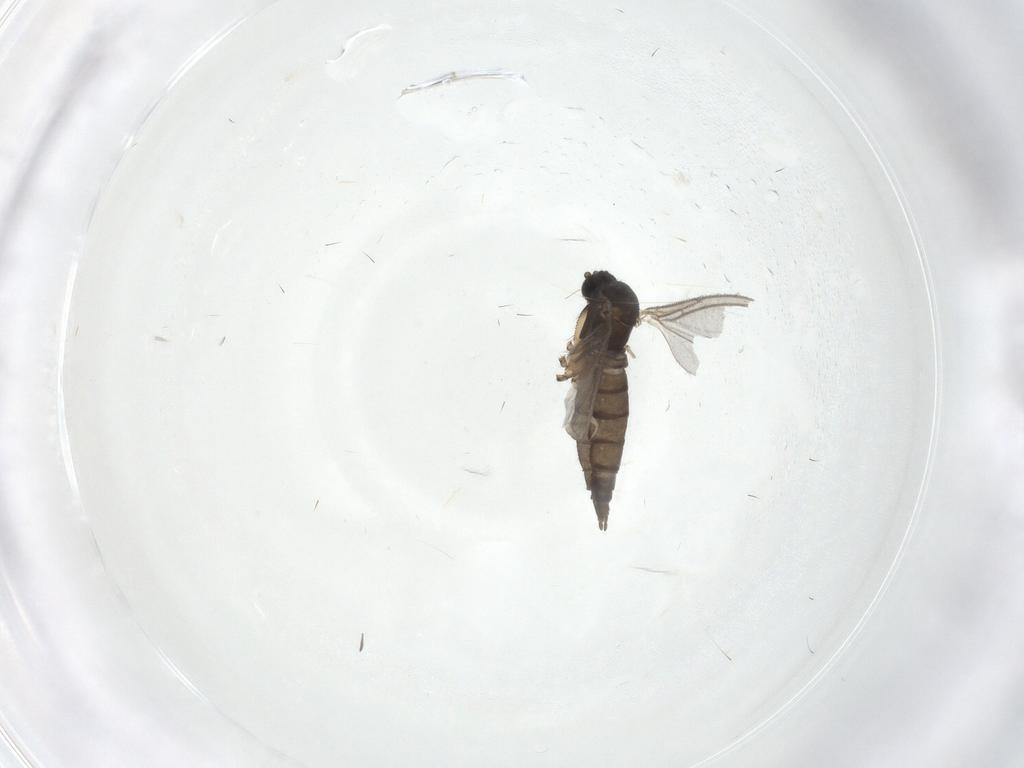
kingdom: Animalia
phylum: Arthropoda
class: Insecta
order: Diptera
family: Sciaridae
